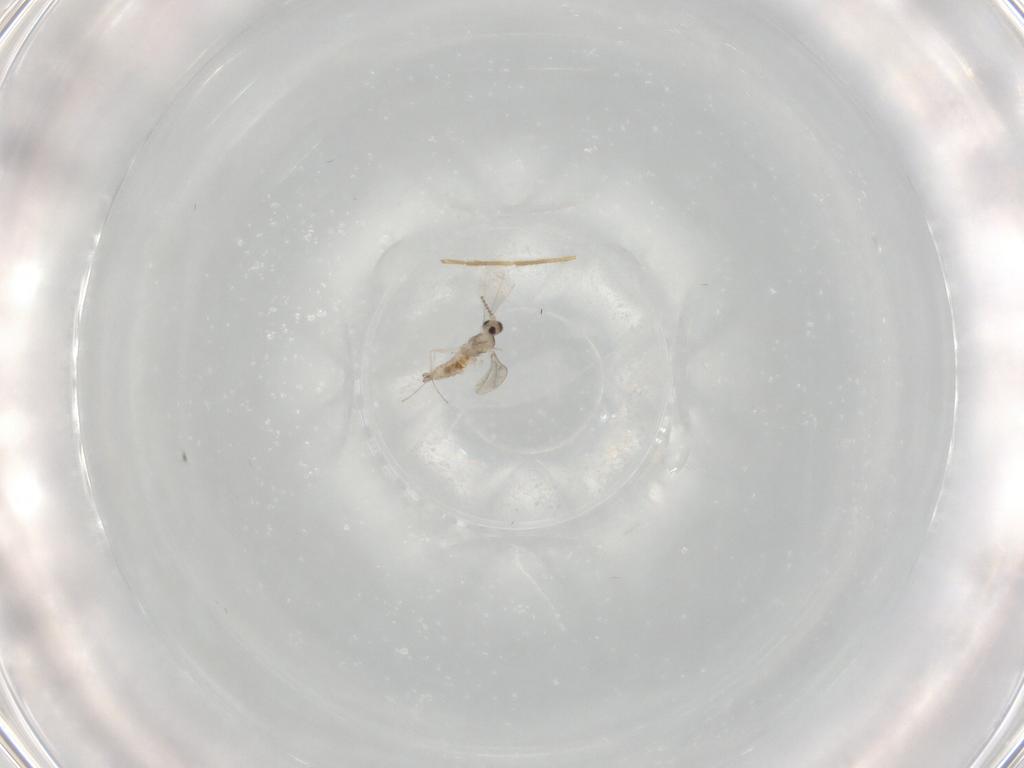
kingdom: Animalia
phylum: Arthropoda
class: Insecta
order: Diptera
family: Chironomidae
